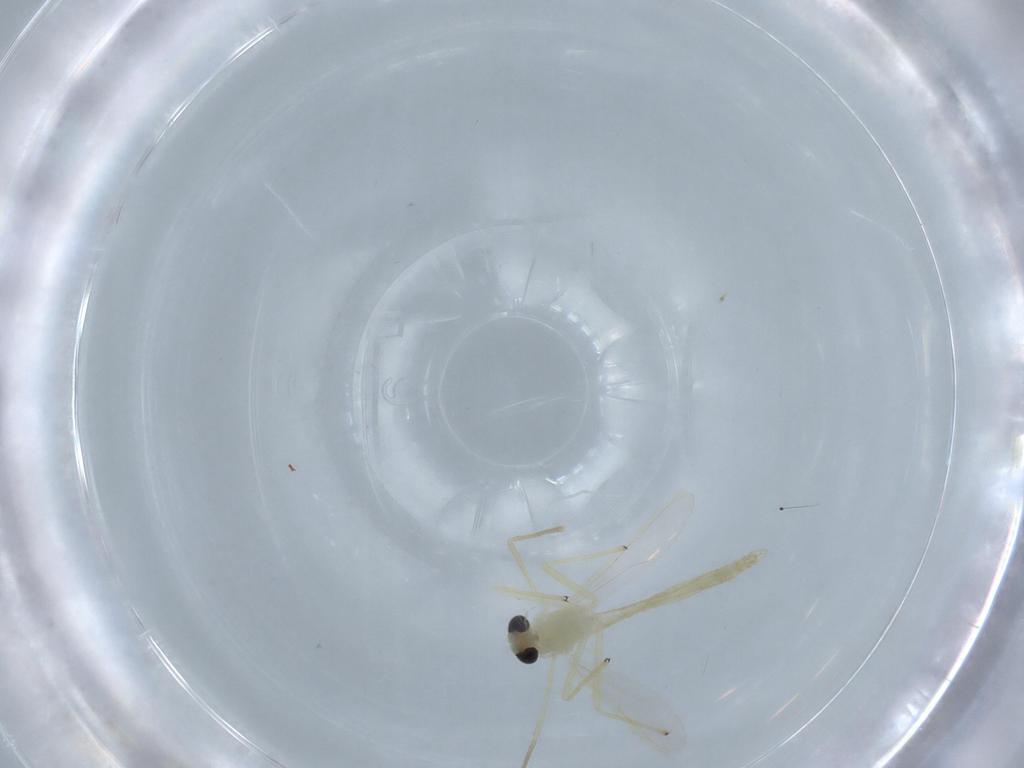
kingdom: Animalia
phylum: Arthropoda
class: Insecta
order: Diptera
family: Chironomidae
